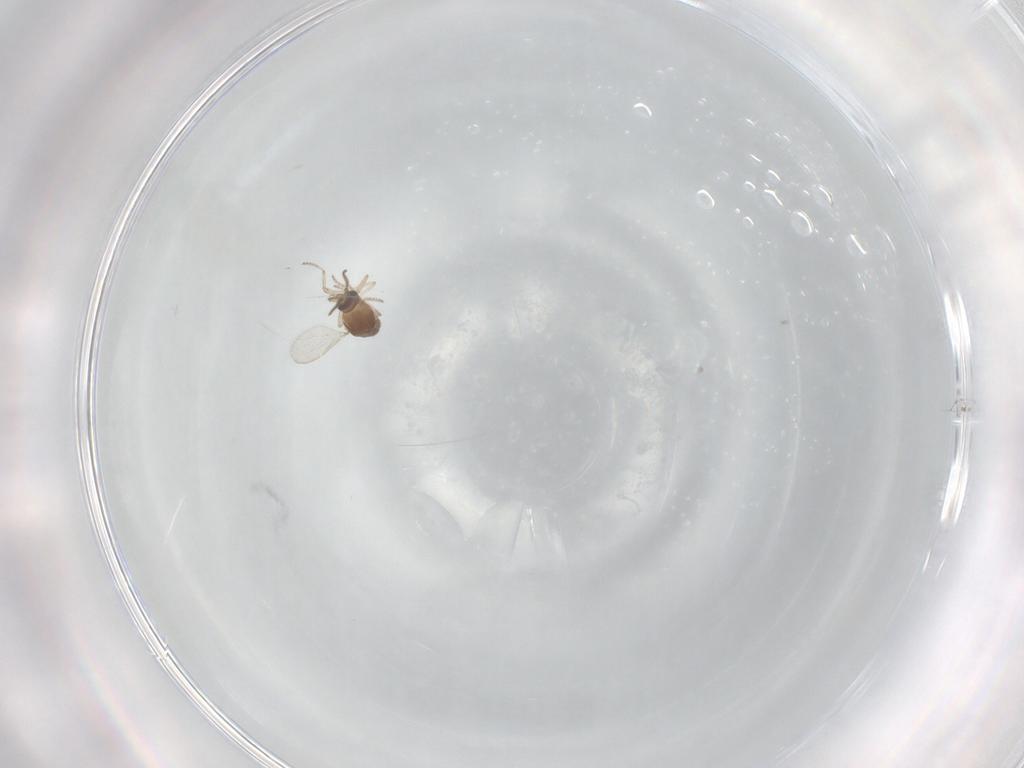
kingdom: Animalia
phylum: Arthropoda
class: Insecta
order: Diptera
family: Ceratopogonidae
